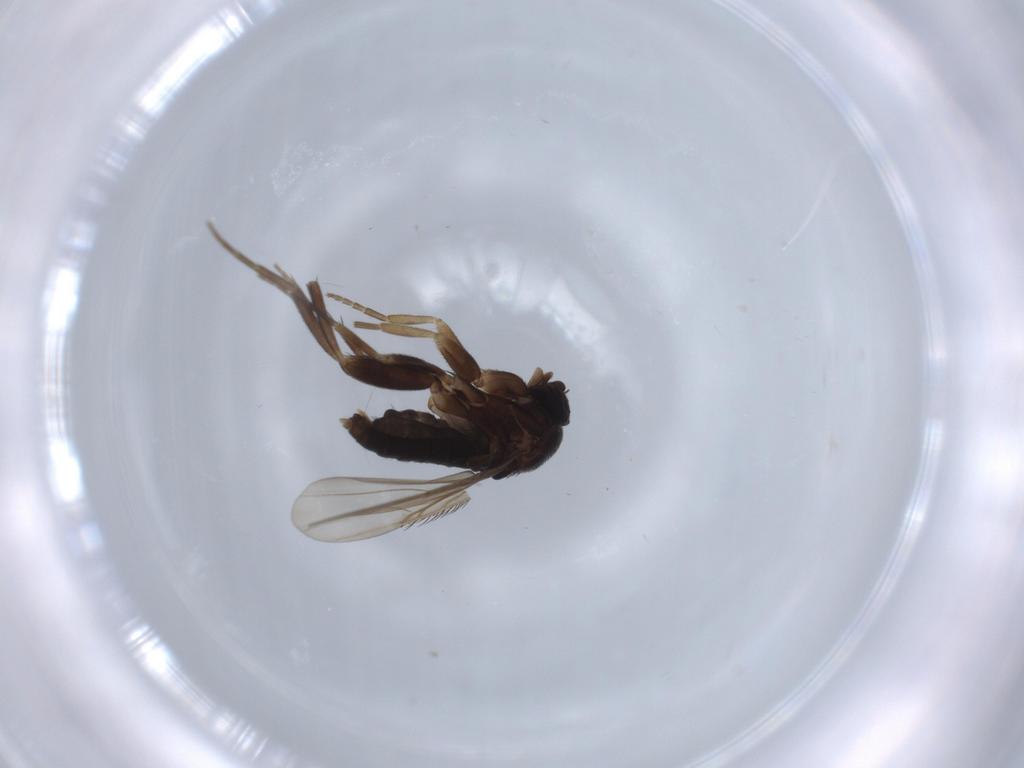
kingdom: Animalia
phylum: Arthropoda
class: Insecta
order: Diptera
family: Phoridae
